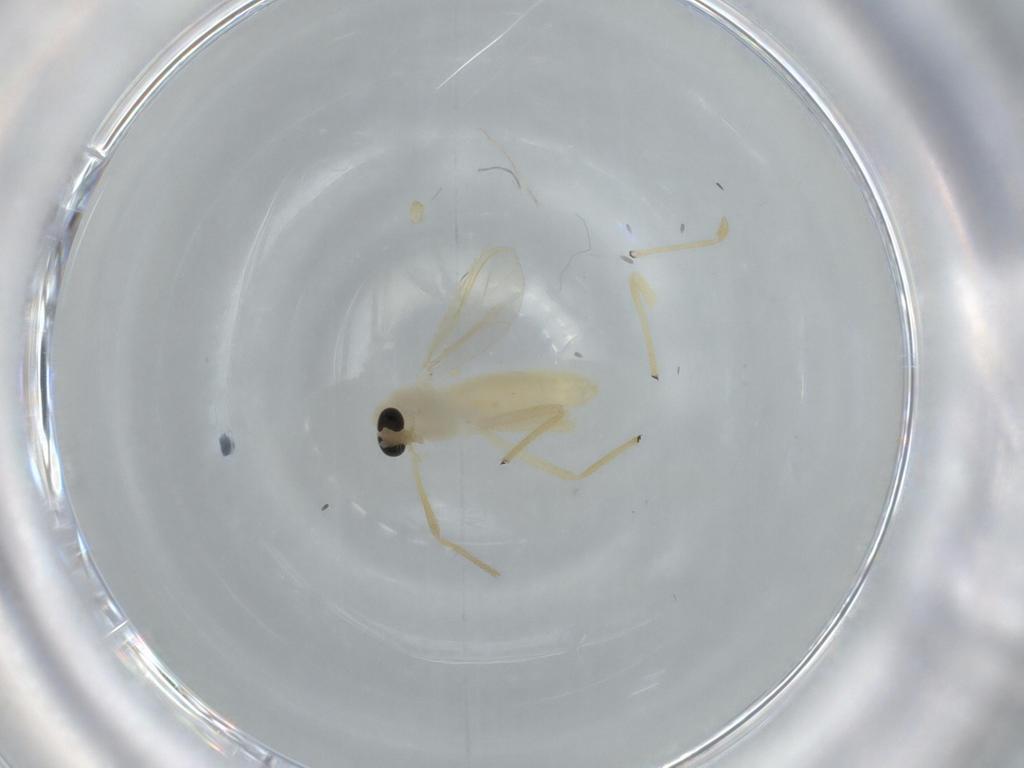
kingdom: Animalia
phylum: Arthropoda
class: Insecta
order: Diptera
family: Chironomidae
